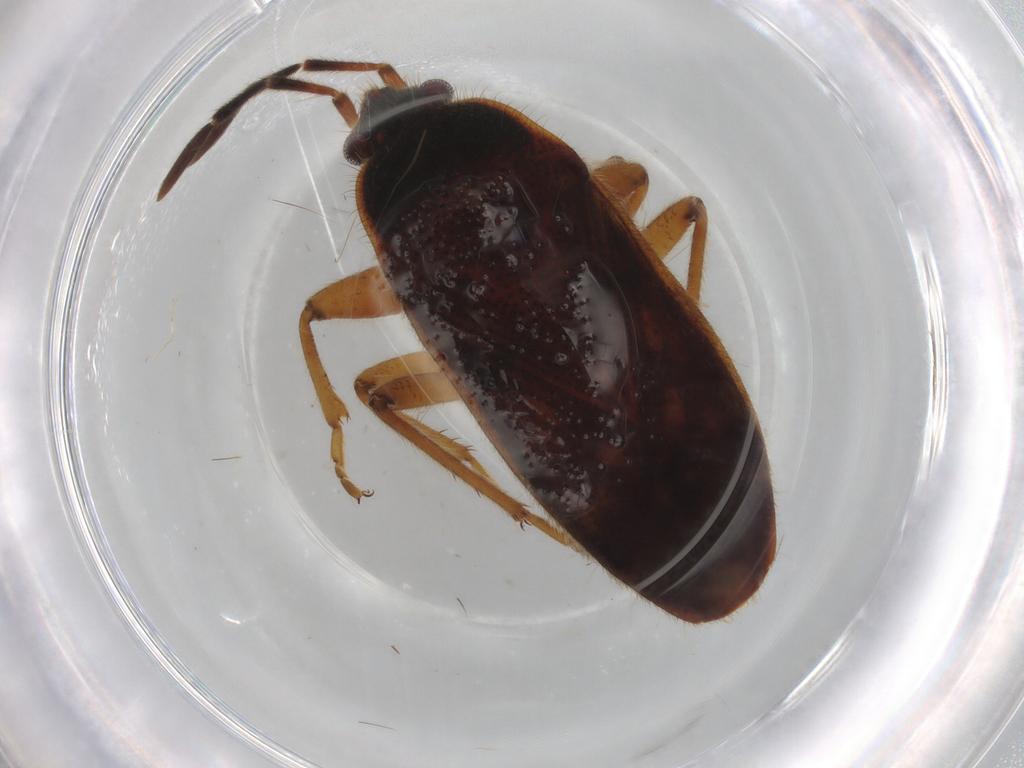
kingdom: Animalia
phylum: Arthropoda
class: Insecta
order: Hemiptera
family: Rhyparochromidae
